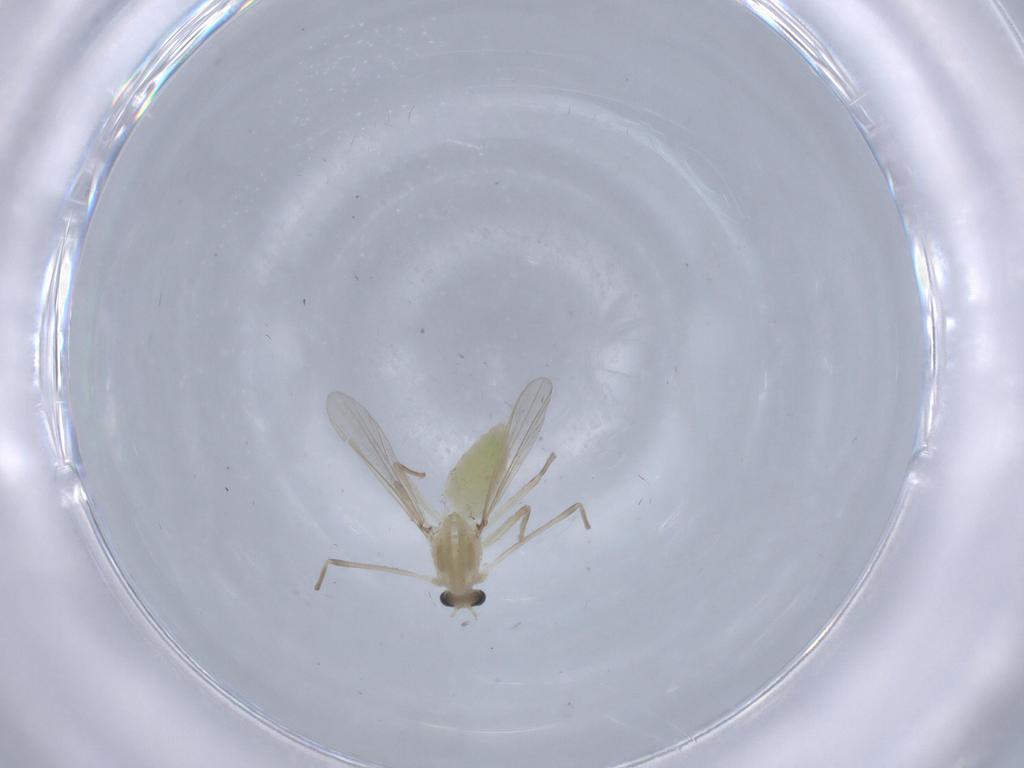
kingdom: Animalia
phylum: Arthropoda
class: Insecta
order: Diptera
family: Chironomidae
